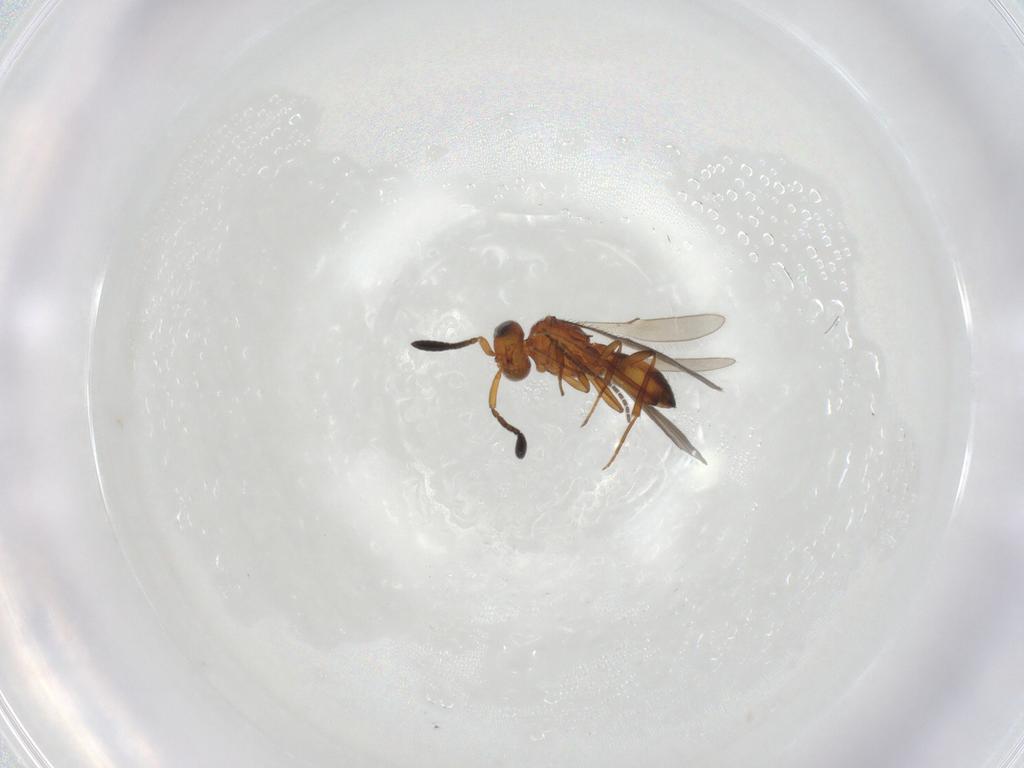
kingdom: Animalia
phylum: Arthropoda
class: Insecta
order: Hymenoptera
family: Scelionidae
